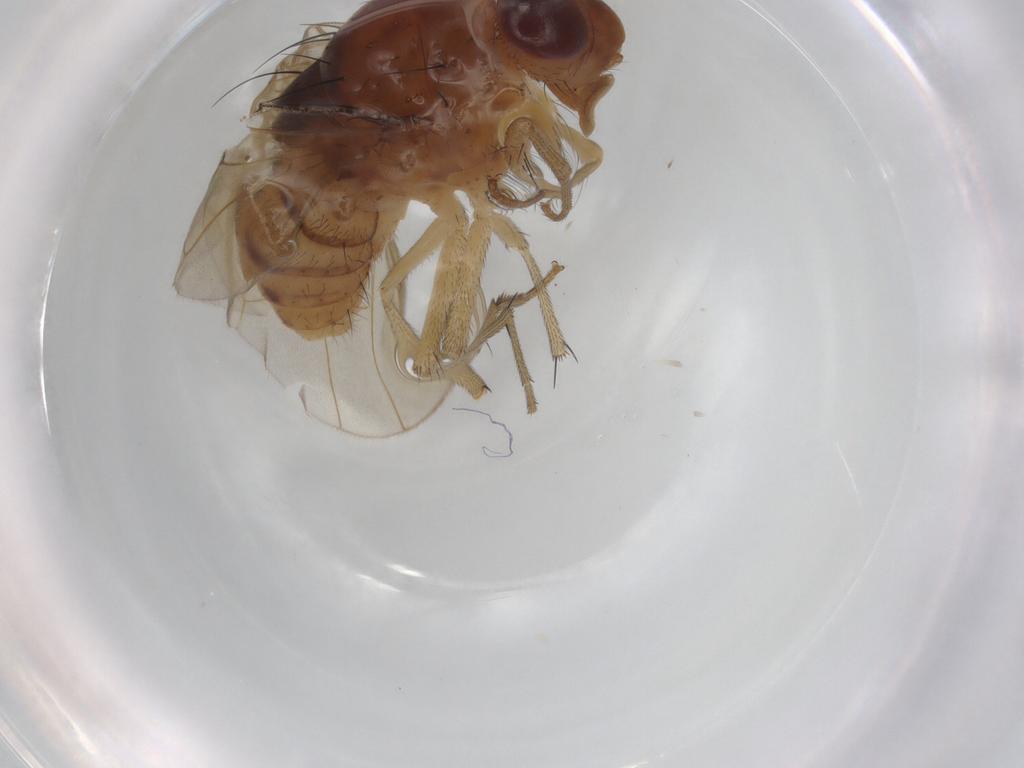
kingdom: Animalia
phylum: Arthropoda
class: Insecta
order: Diptera
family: Ephydridae
